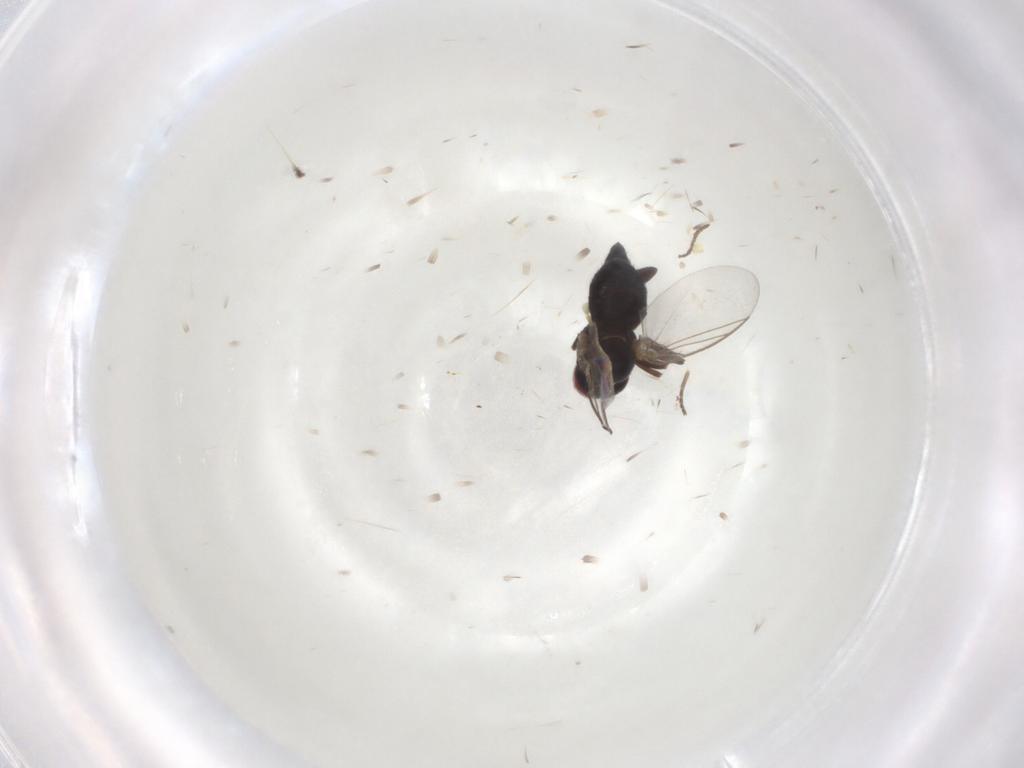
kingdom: Animalia
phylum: Arthropoda
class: Insecta
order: Diptera
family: Syrphidae
